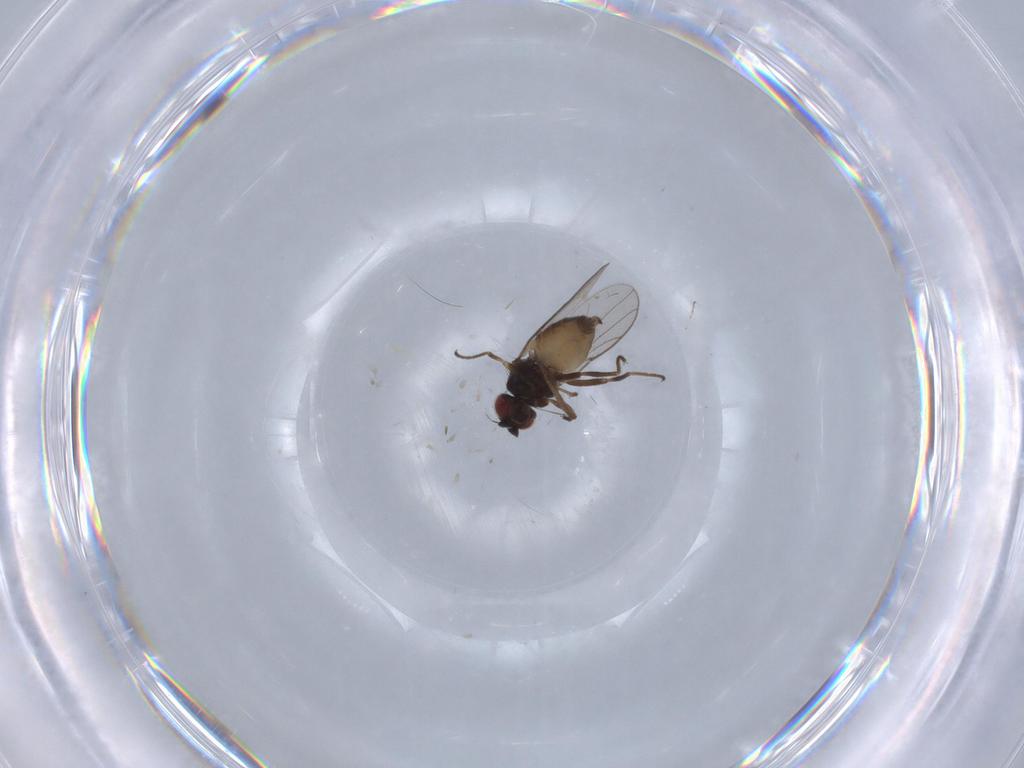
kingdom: Animalia
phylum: Arthropoda
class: Insecta
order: Diptera
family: Chloropidae
